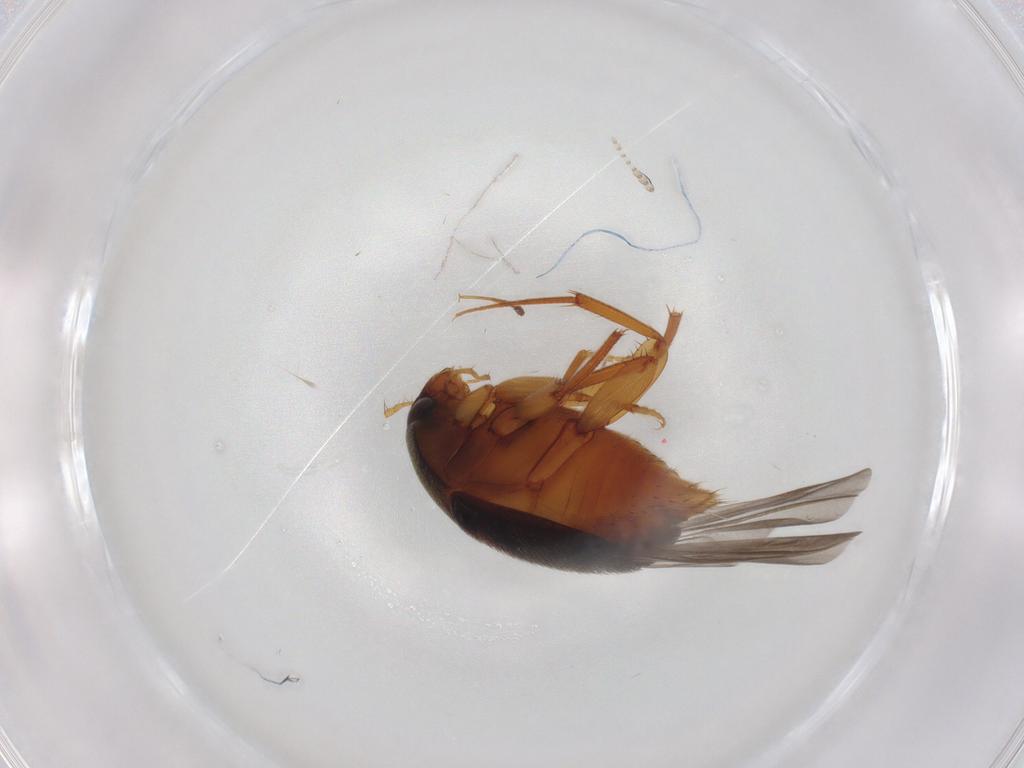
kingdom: Animalia
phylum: Arthropoda
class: Insecta
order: Coleoptera
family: Staphylinidae
